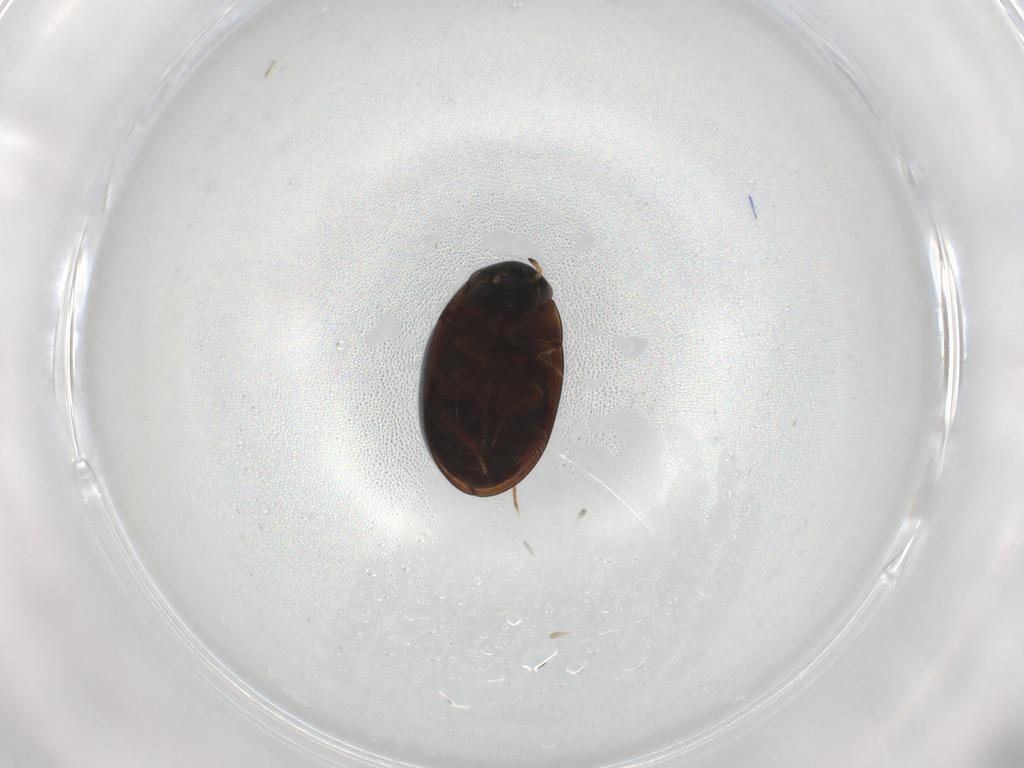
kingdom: Animalia
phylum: Arthropoda
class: Insecta
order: Coleoptera
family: Hydrophilidae
